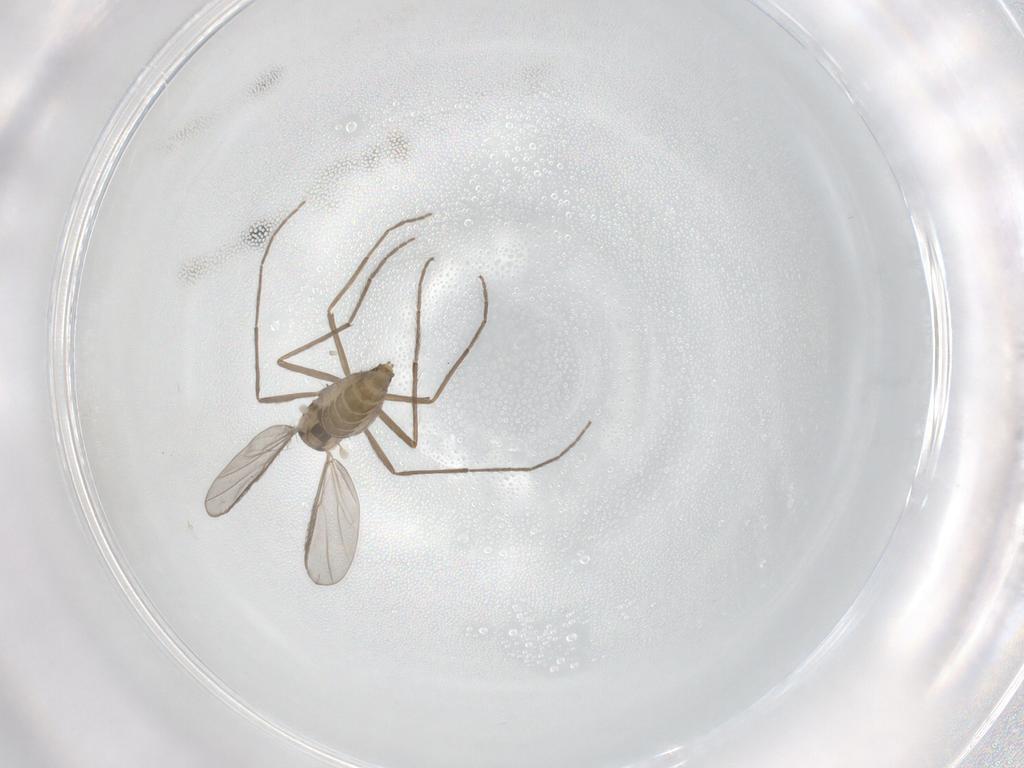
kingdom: Animalia
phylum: Arthropoda
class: Insecta
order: Diptera
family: Chironomidae
